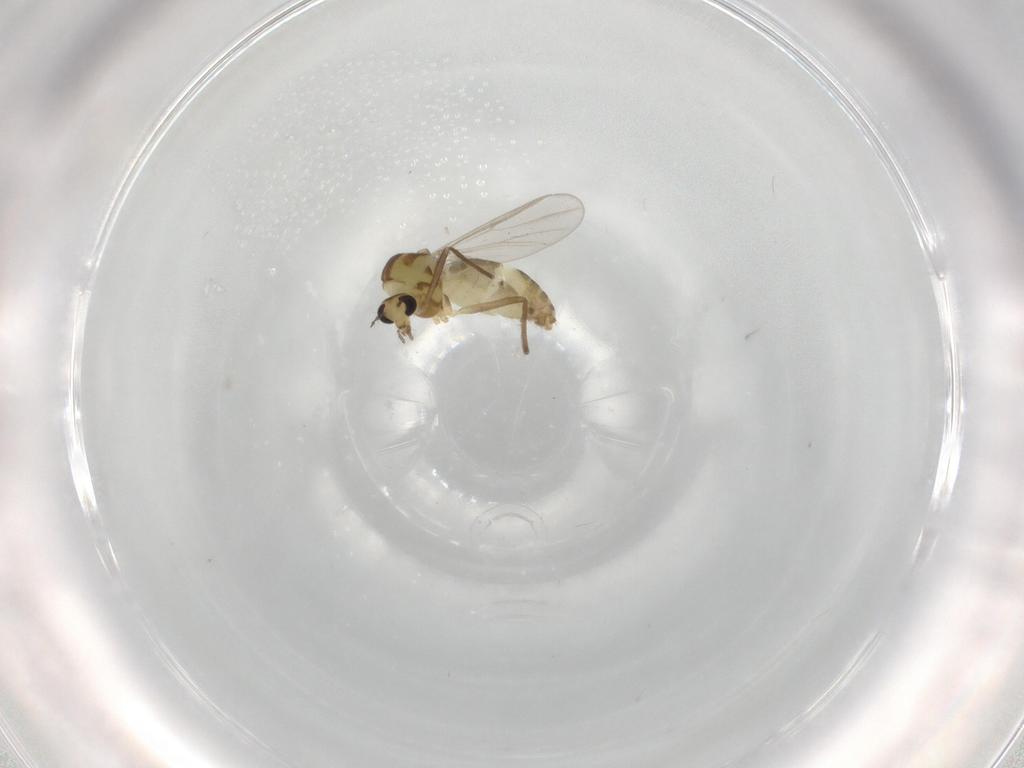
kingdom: Animalia
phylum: Arthropoda
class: Insecta
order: Diptera
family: Chironomidae
